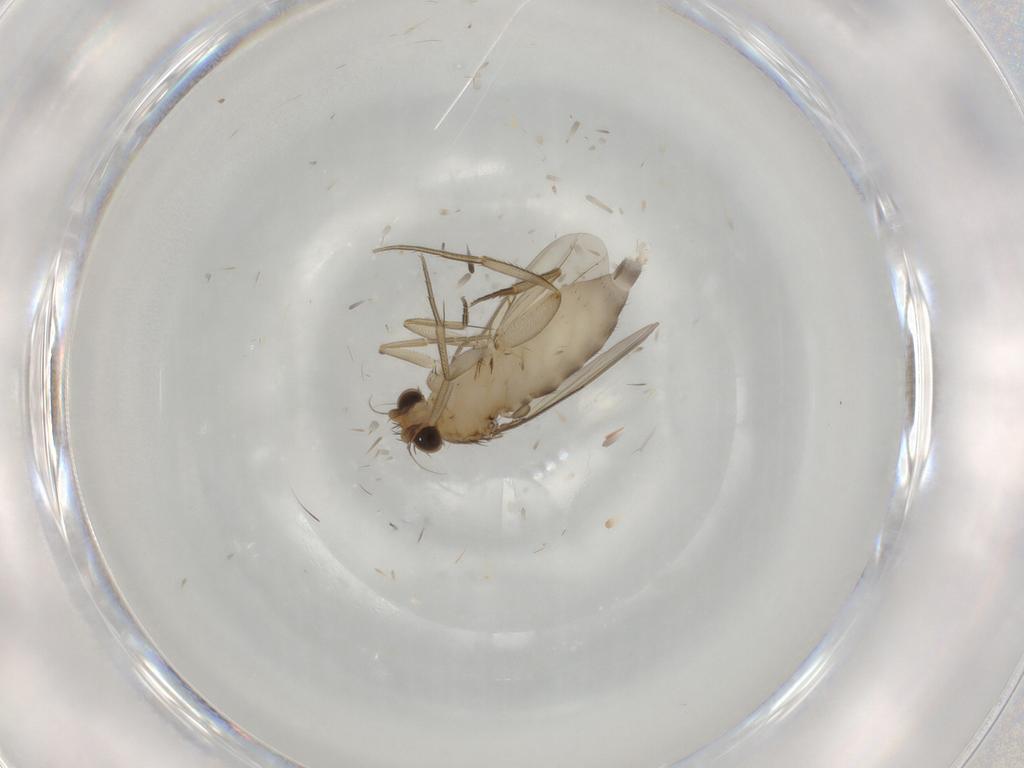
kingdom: Animalia
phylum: Arthropoda
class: Insecta
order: Diptera
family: Phoridae
